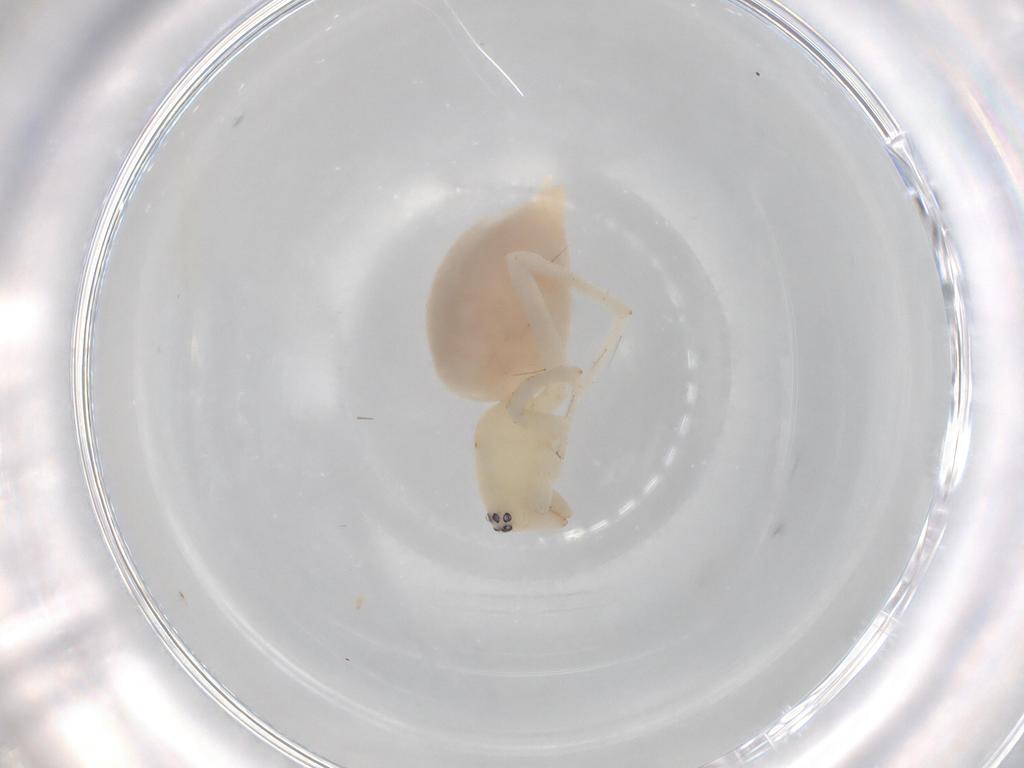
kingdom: Animalia
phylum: Arthropoda
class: Arachnida
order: Araneae
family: Anyphaenidae
